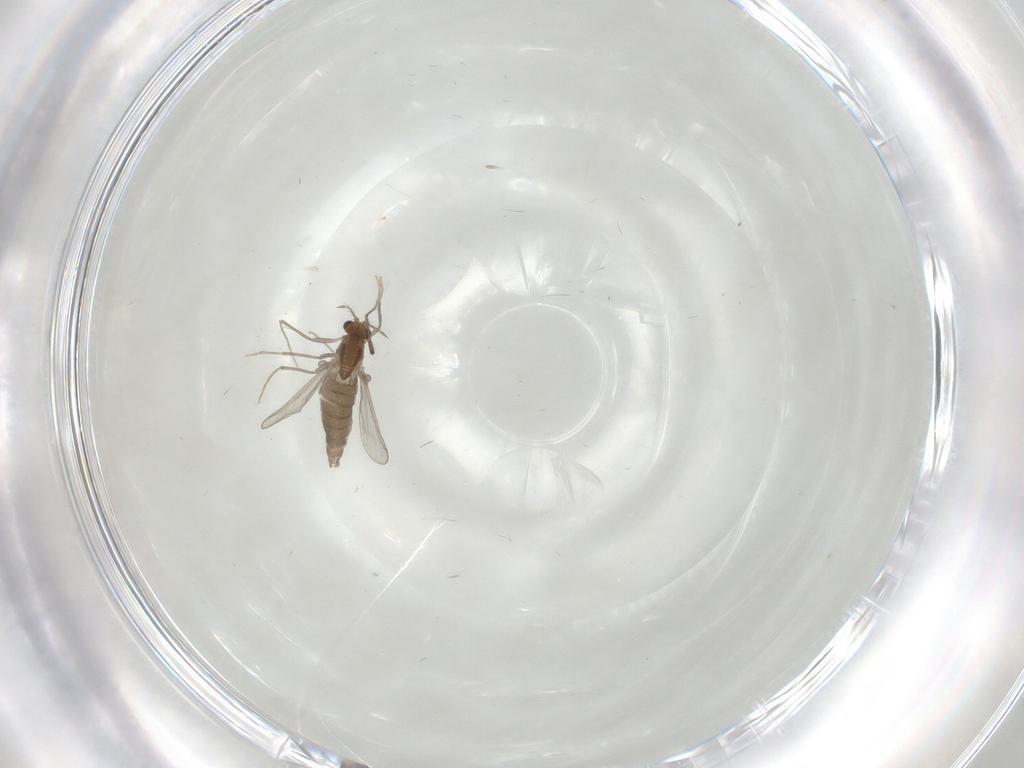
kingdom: Animalia
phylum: Arthropoda
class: Insecta
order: Diptera
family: Chironomidae
